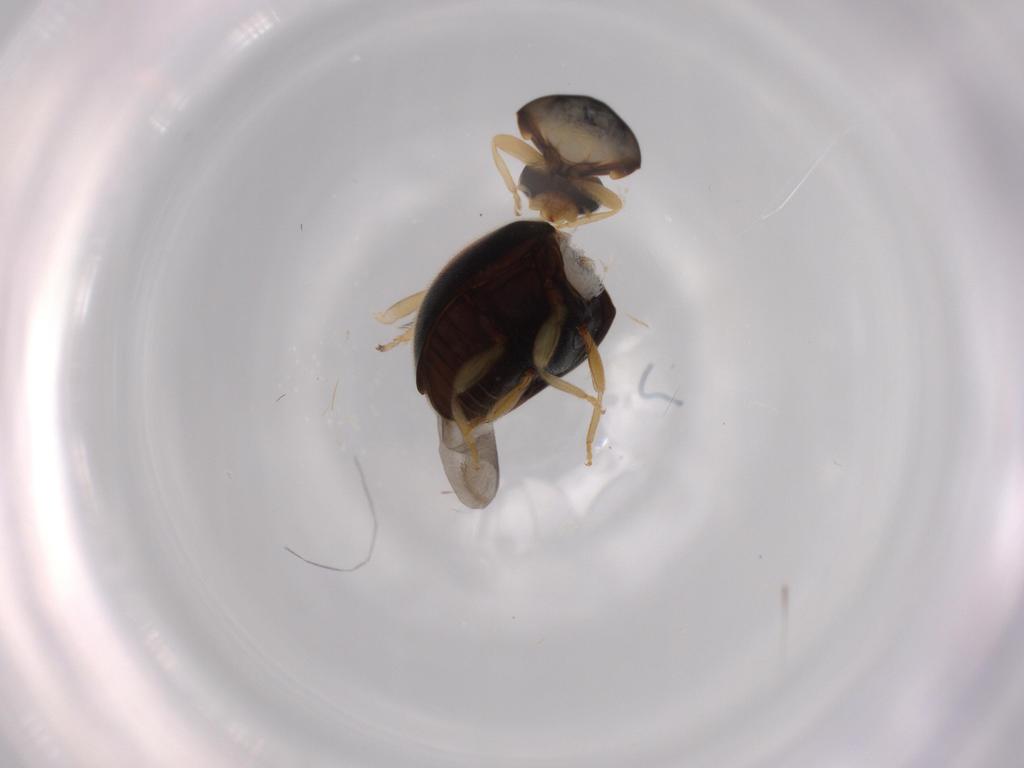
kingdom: Animalia
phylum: Arthropoda
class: Insecta
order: Coleoptera
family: Coccinellidae
